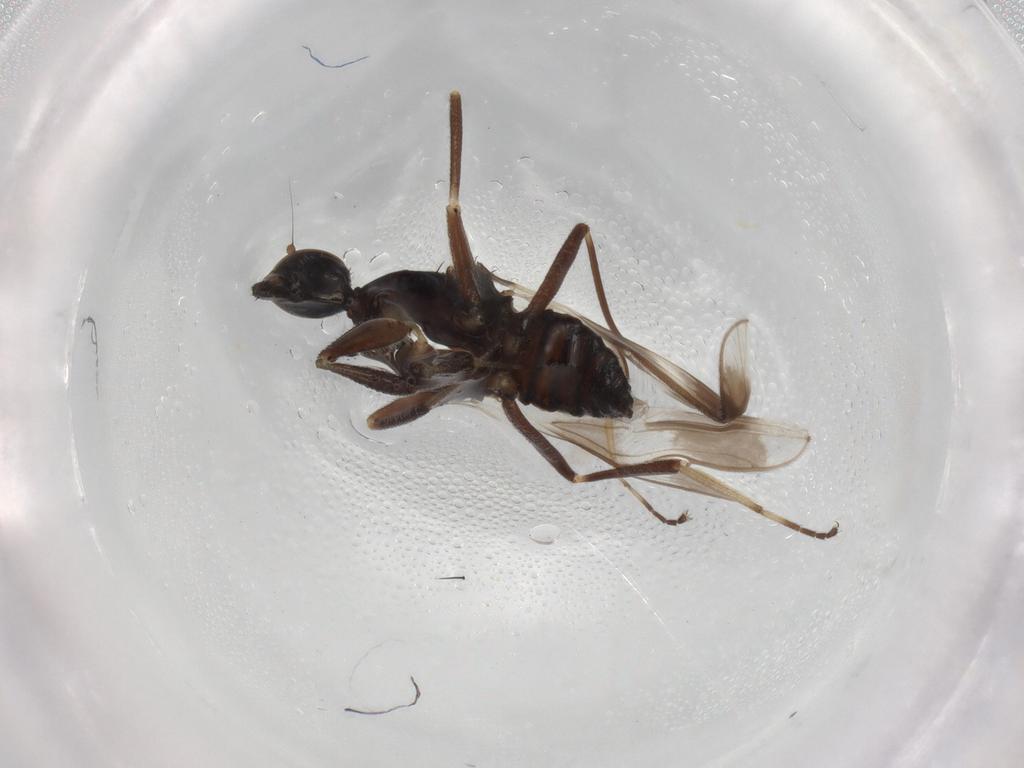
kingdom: Animalia
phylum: Arthropoda
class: Insecta
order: Diptera
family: Hybotidae
